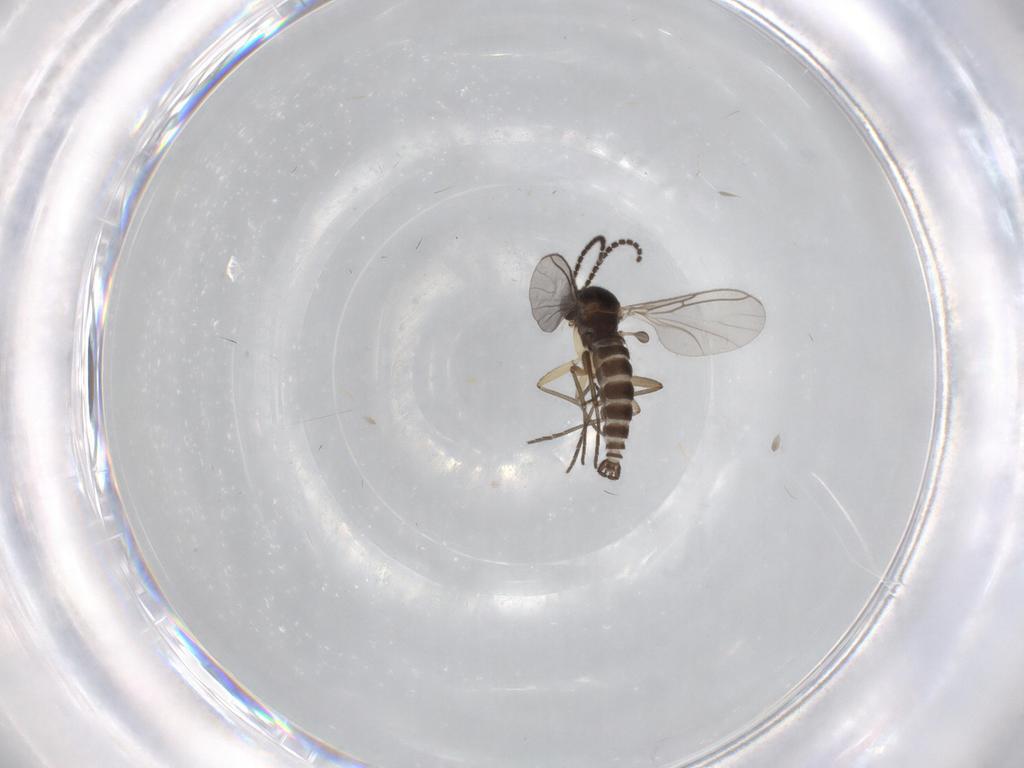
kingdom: Animalia
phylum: Arthropoda
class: Insecta
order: Diptera
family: Sciaridae
